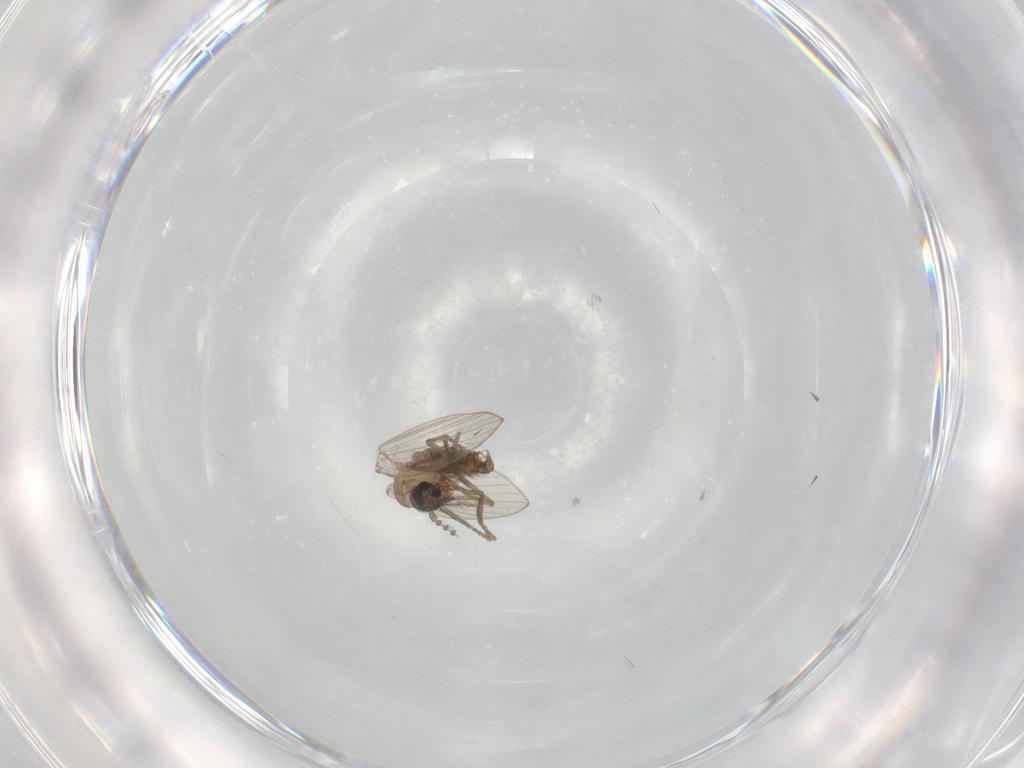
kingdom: Animalia
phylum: Arthropoda
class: Insecta
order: Diptera
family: Psychodidae
